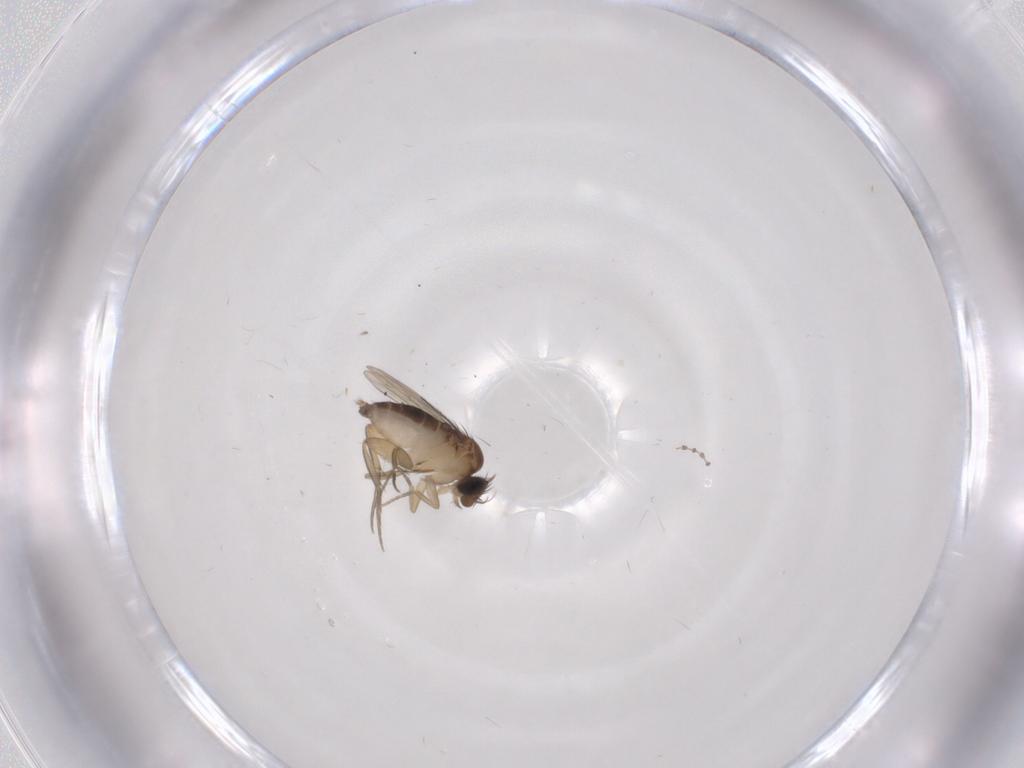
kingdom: Animalia
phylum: Arthropoda
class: Insecta
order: Diptera
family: Phoridae
